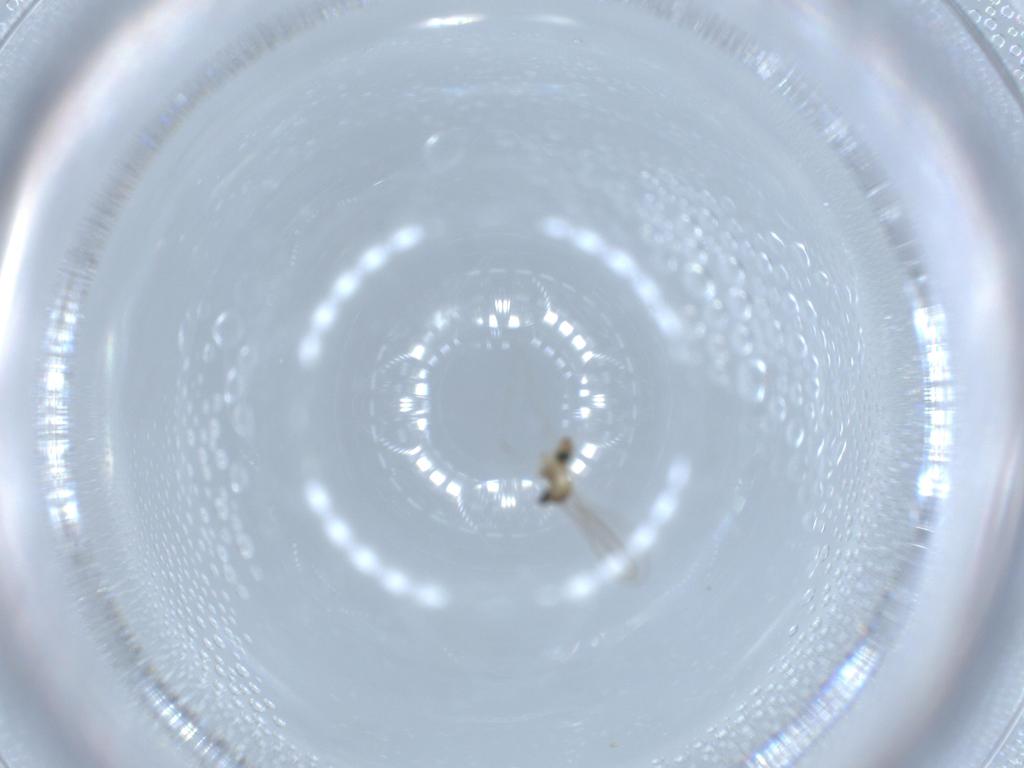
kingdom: Animalia
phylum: Arthropoda
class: Insecta
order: Diptera
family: Cecidomyiidae
